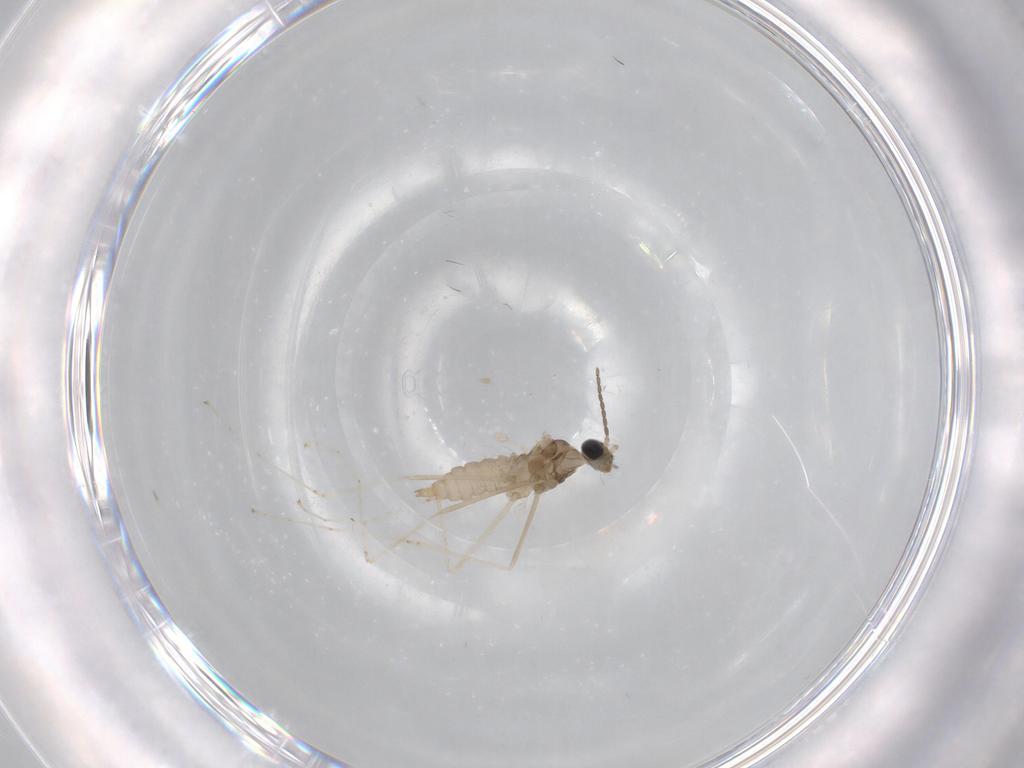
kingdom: Animalia
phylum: Arthropoda
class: Insecta
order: Diptera
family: Cecidomyiidae
